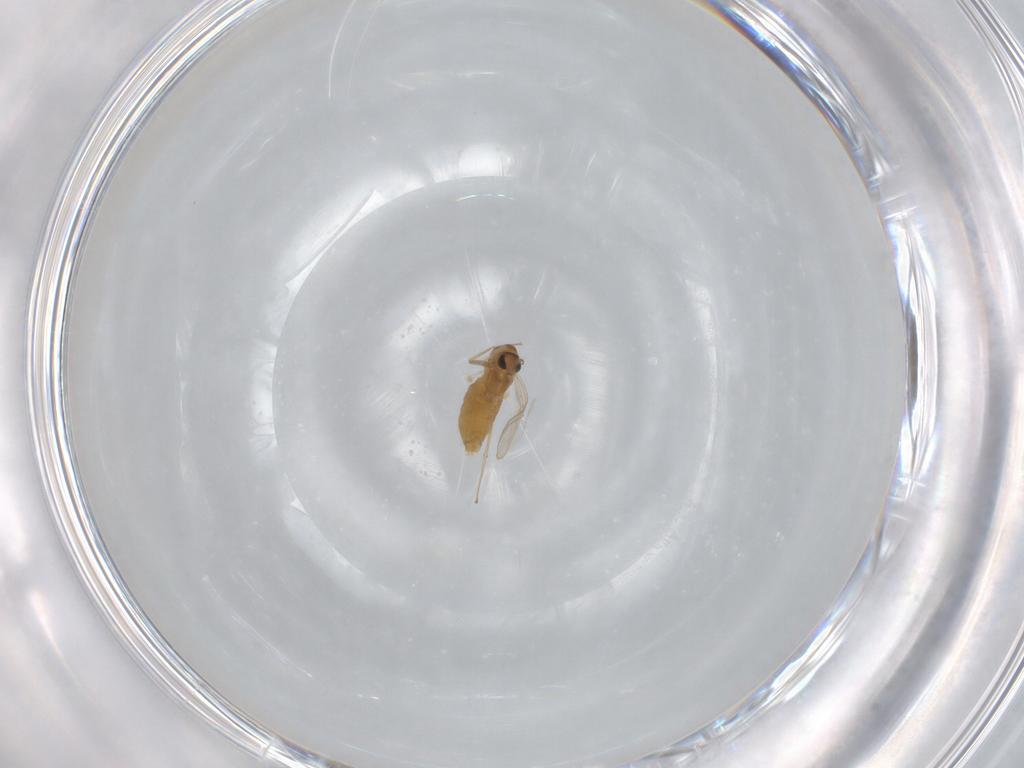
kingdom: Animalia
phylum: Arthropoda
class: Insecta
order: Diptera
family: Chironomidae
